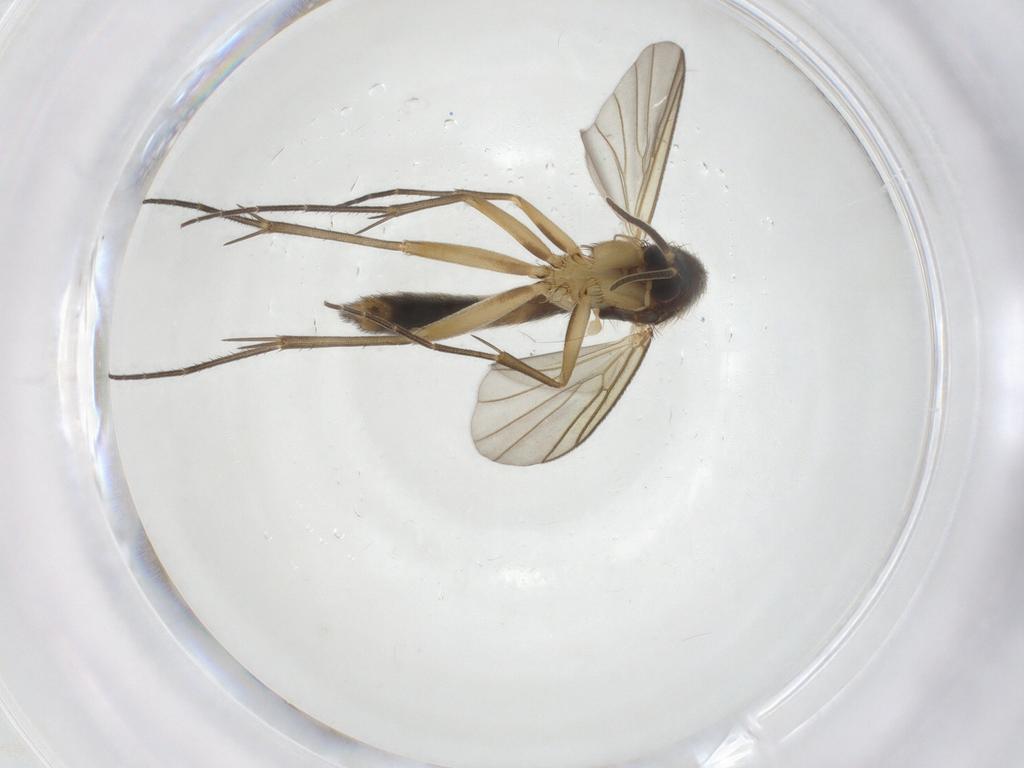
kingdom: Animalia
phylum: Arthropoda
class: Insecta
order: Diptera
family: Mycetophilidae
